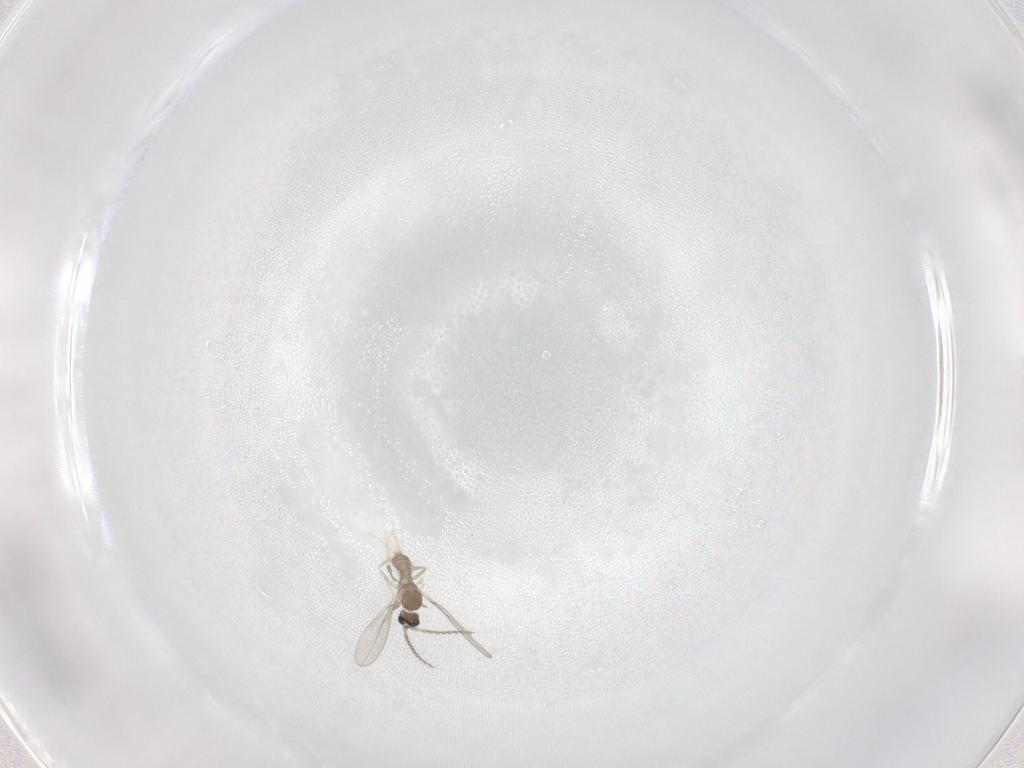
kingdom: Animalia
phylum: Arthropoda
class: Insecta
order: Diptera
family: Cecidomyiidae
